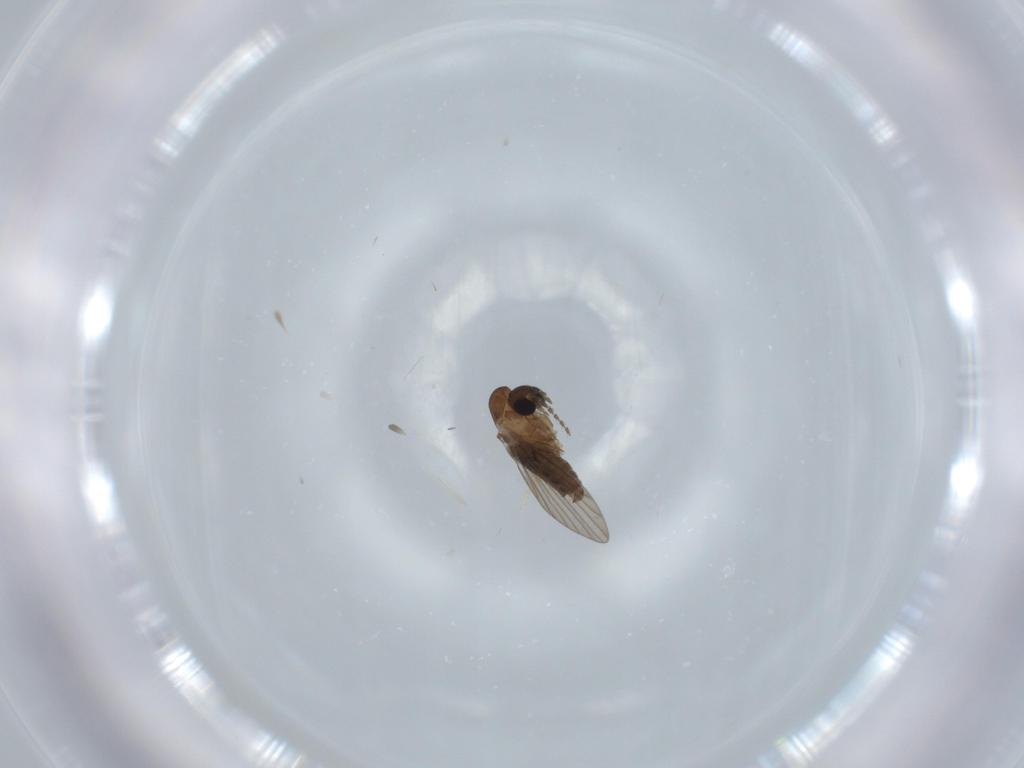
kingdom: Animalia
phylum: Arthropoda
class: Insecta
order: Diptera
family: Psychodidae
